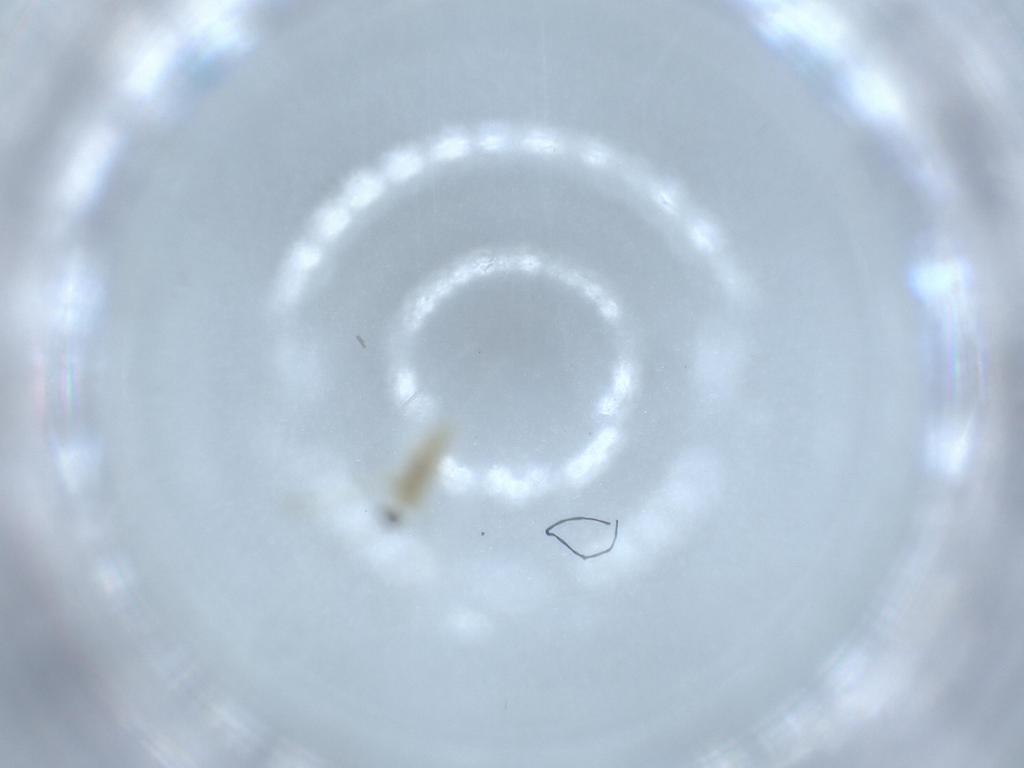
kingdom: Animalia
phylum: Arthropoda
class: Insecta
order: Diptera
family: Cecidomyiidae
